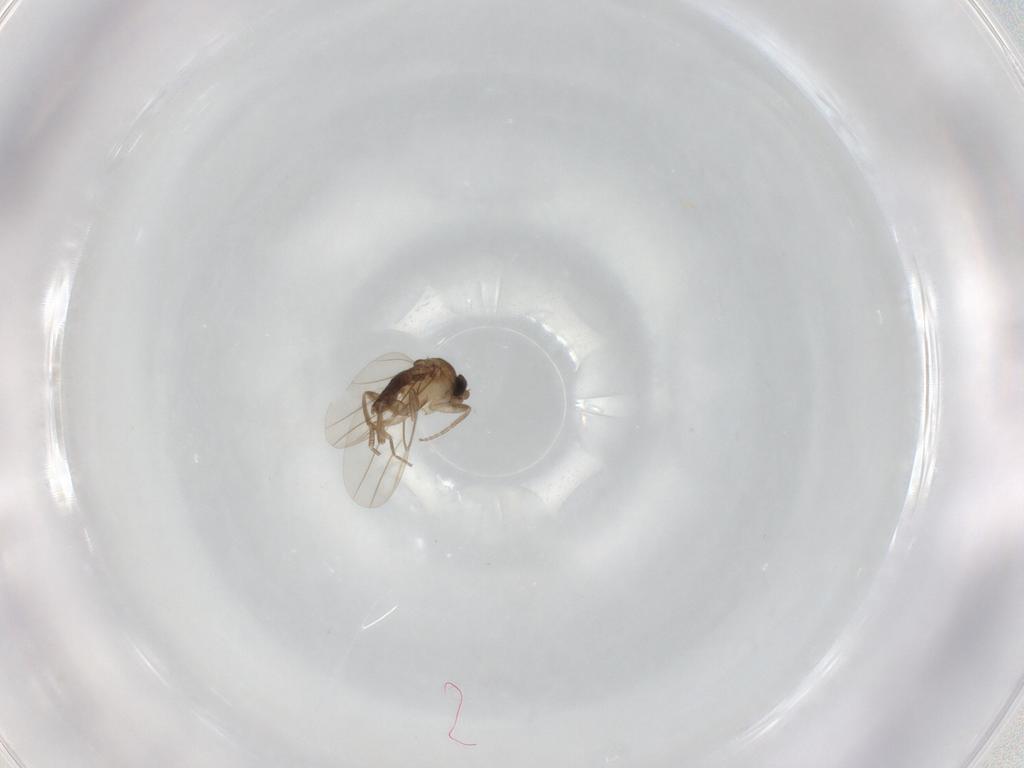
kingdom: Animalia
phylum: Arthropoda
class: Insecta
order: Diptera
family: Phoridae
